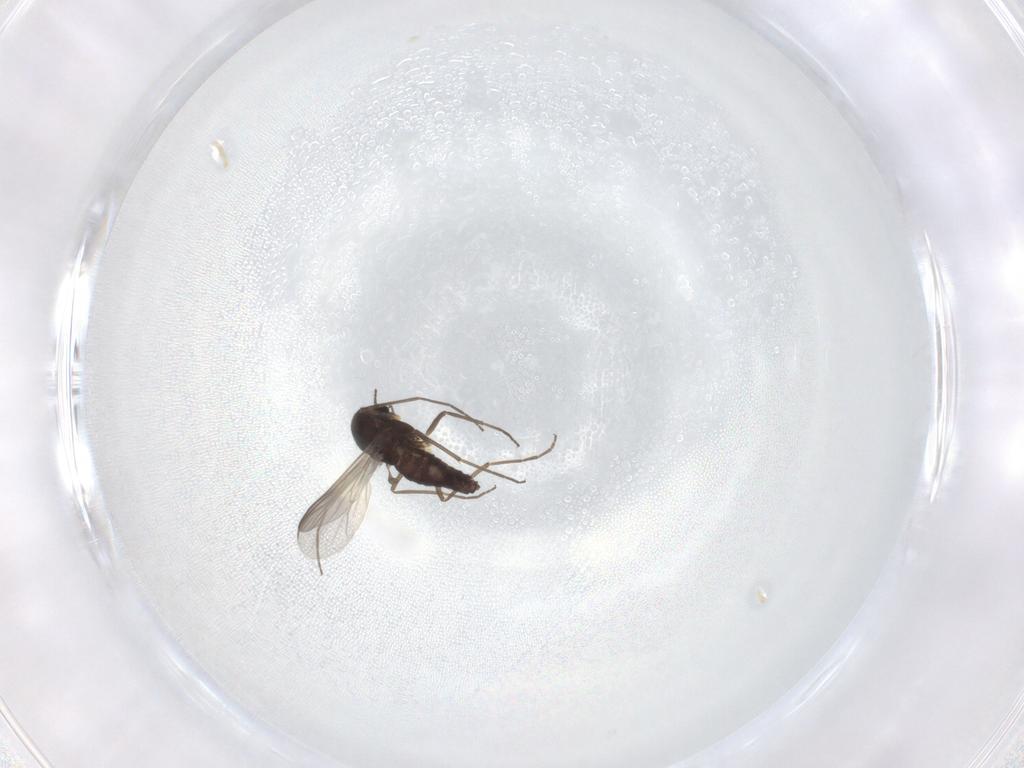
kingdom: Animalia
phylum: Arthropoda
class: Insecta
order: Diptera
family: Chironomidae
